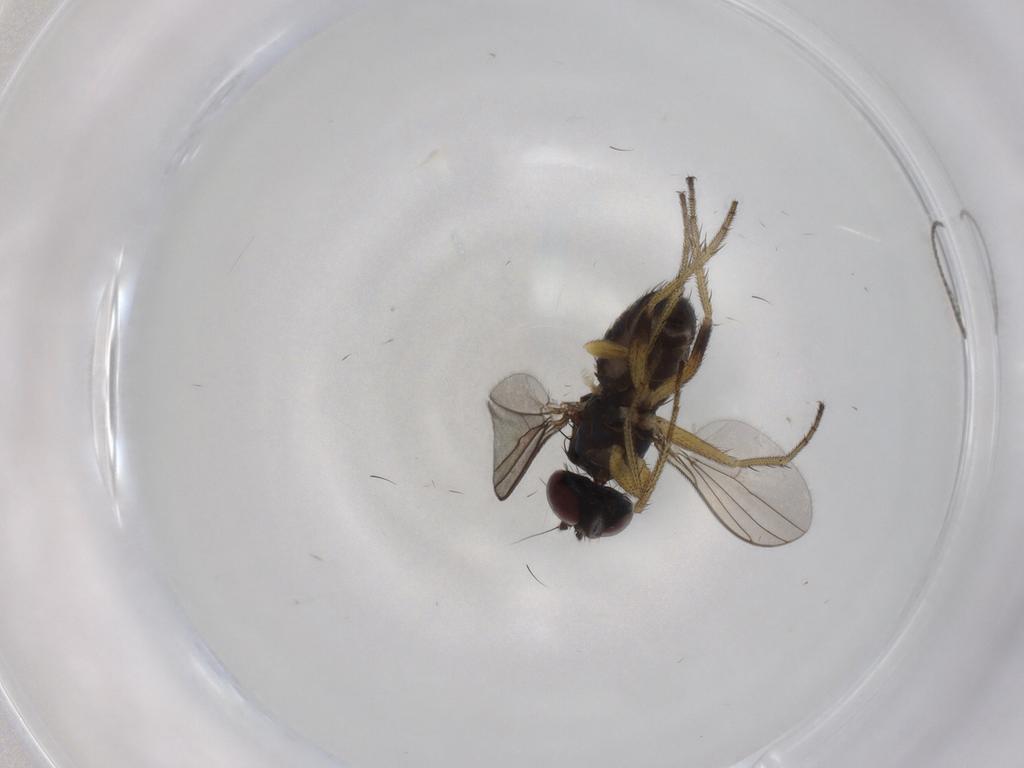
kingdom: Animalia
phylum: Arthropoda
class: Insecta
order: Diptera
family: Dolichopodidae
